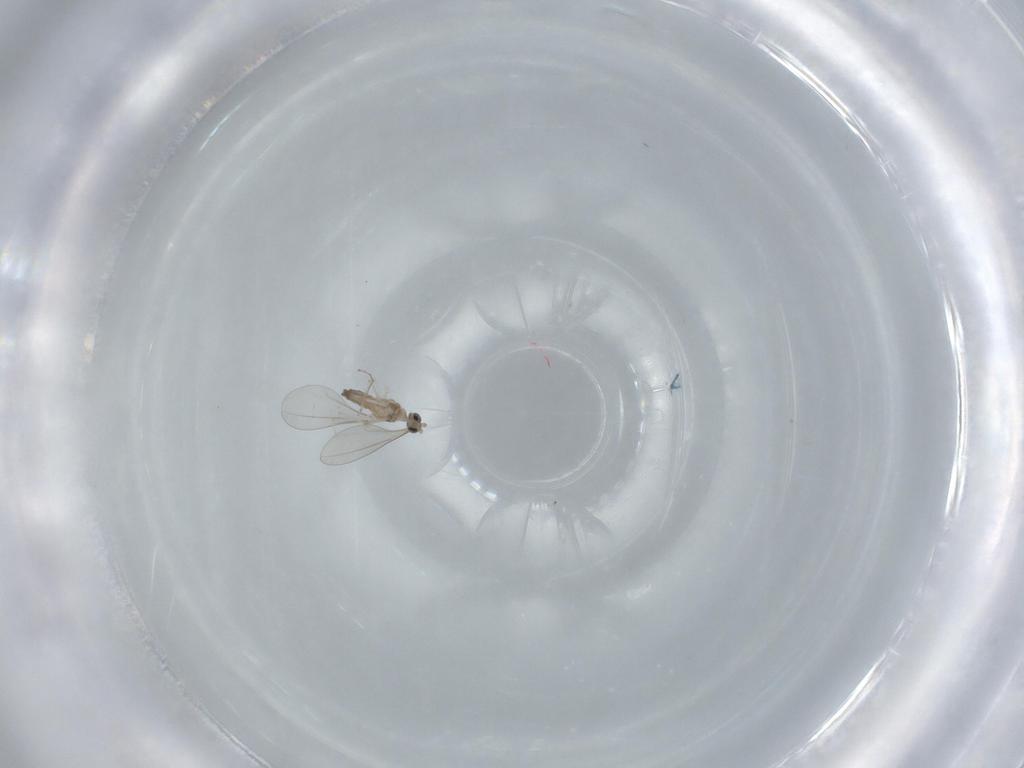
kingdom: Animalia
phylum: Arthropoda
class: Insecta
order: Diptera
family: Cecidomyiidae
